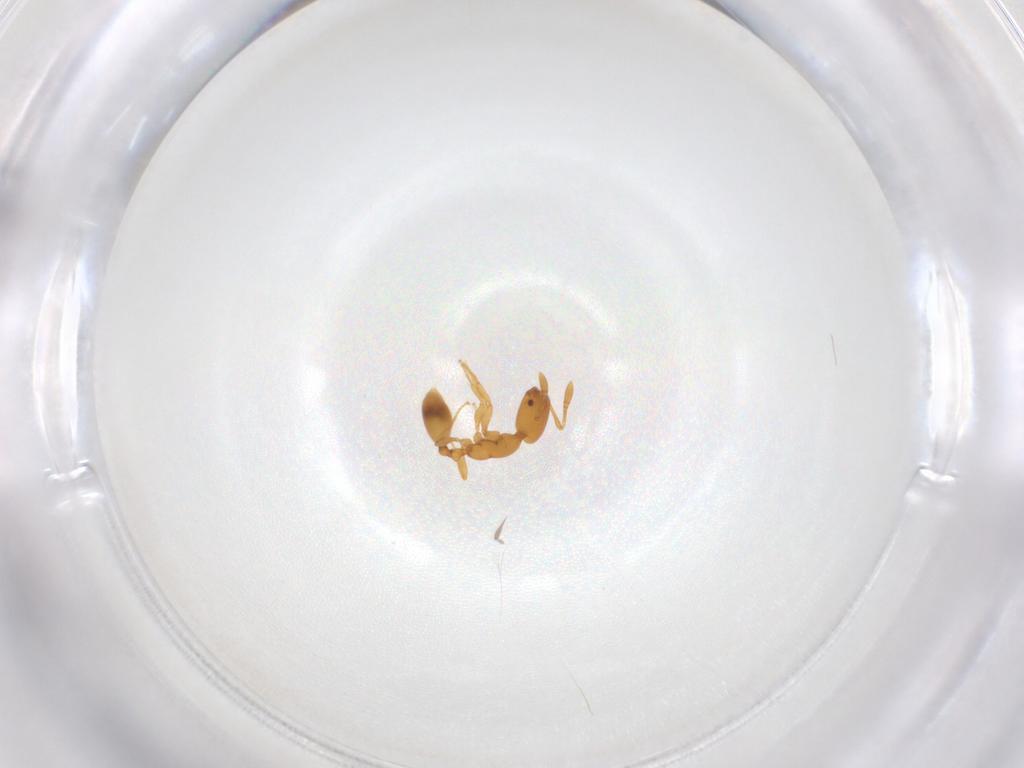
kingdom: Animalia
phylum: Arthropoda
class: Insecta
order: Hymenoptera
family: Formicidae
